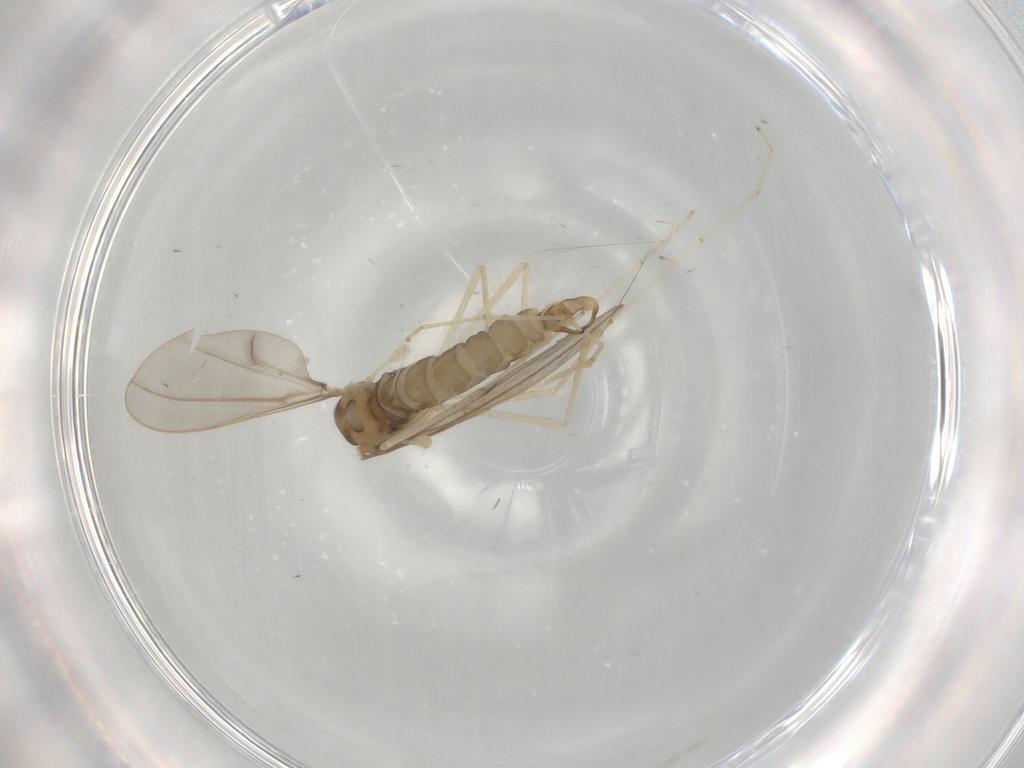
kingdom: Animalia
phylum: Arthropoda
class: Insecta
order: Diptera
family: Cecidomyiidae
